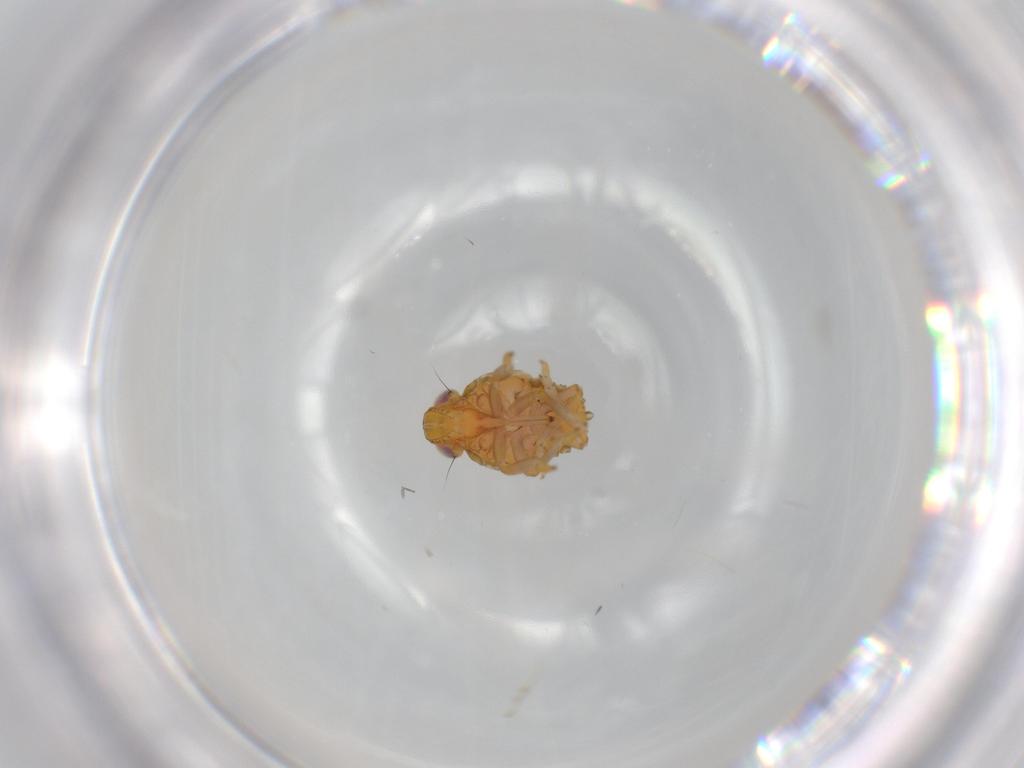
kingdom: Animalia
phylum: Arthropoda
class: Insecta
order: Hemiptera
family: Issidae
